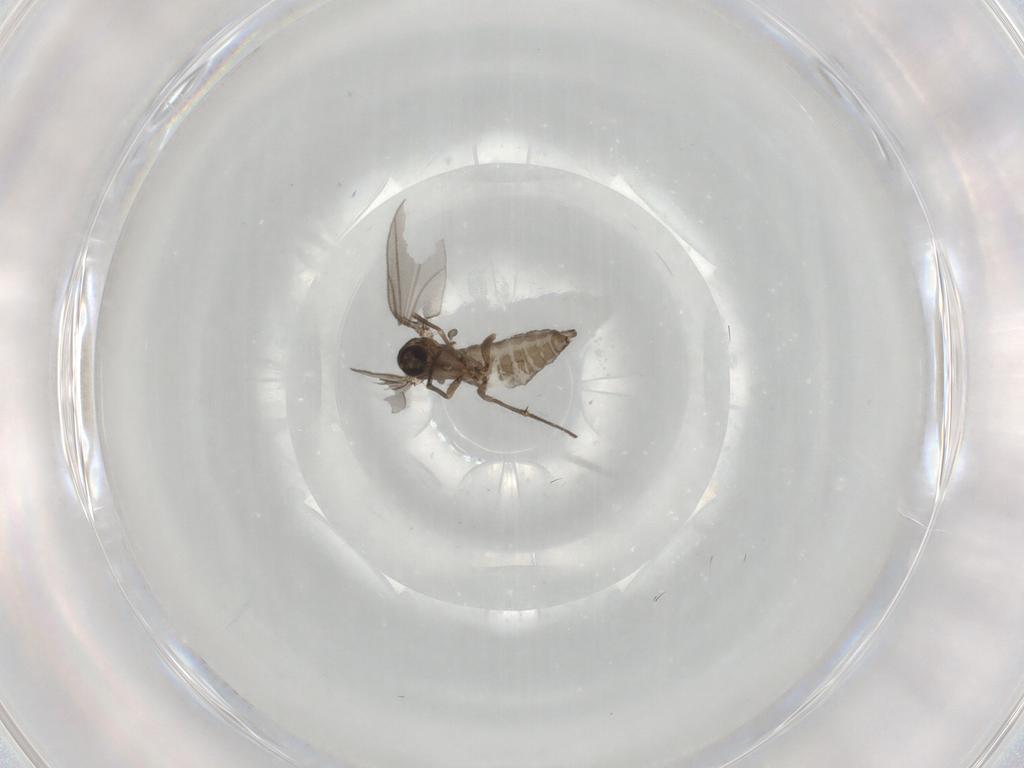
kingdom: Animalia
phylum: Arthropoda
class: Insecta
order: Diptera
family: Sciaridae
